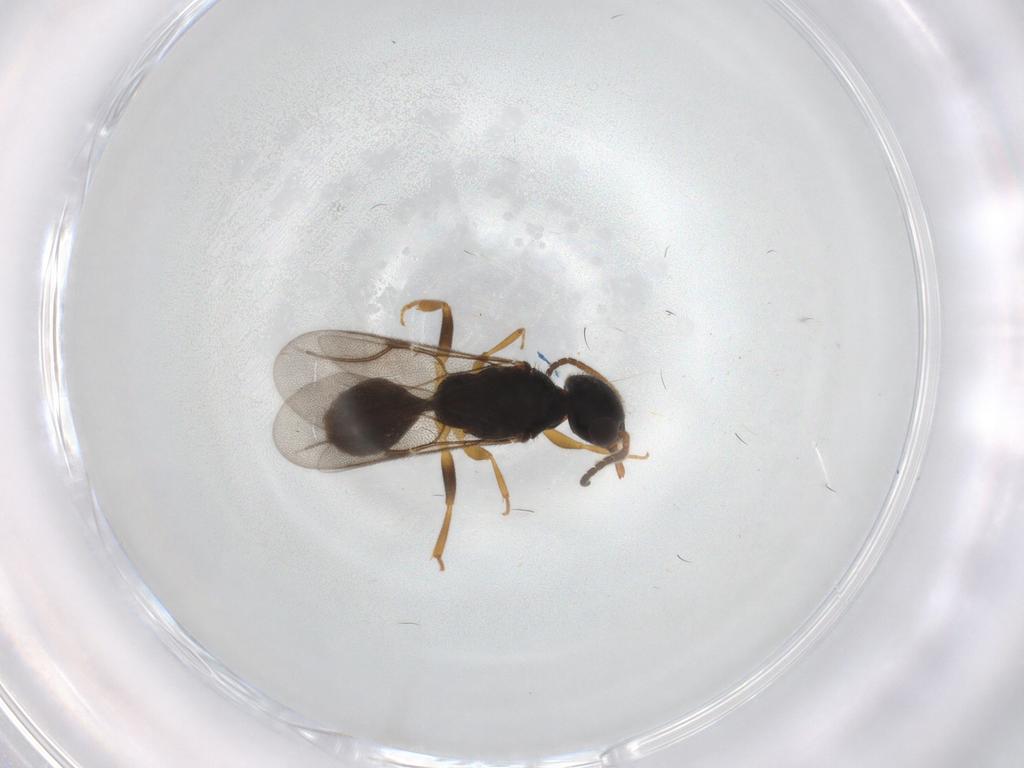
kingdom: Animalia
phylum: Arthropoda
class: Insecta
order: Hymenoptera
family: Bethylidae
